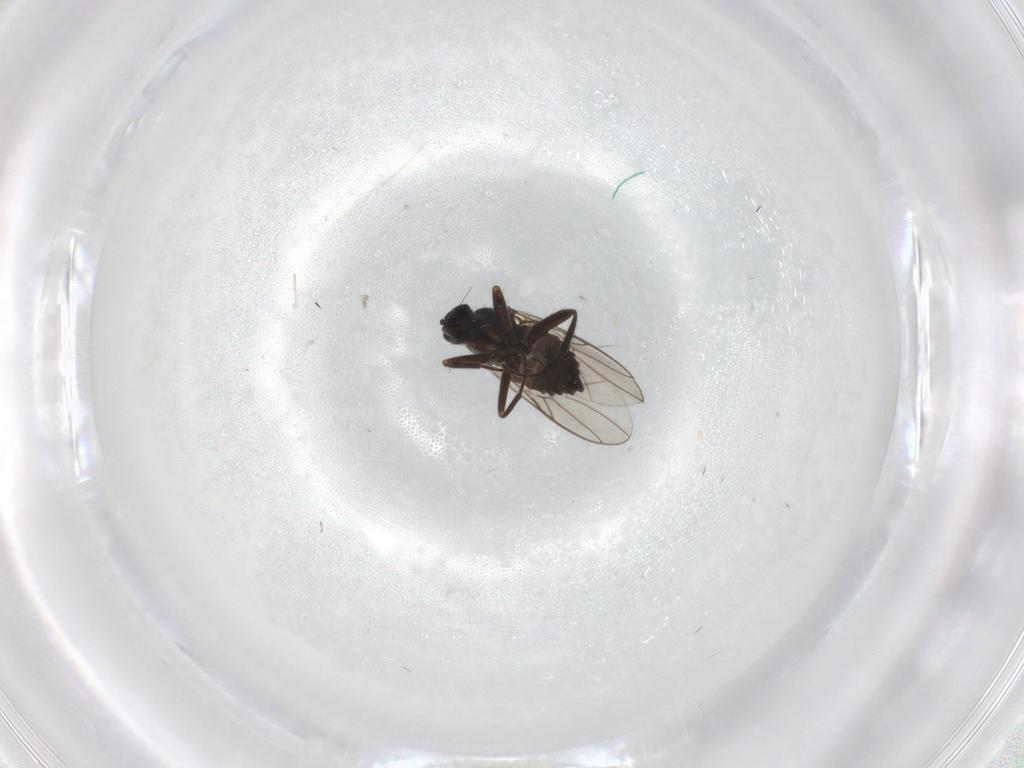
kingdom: Animalia
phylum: Arthropoda
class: Insecta
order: Diptera
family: Hybotidae
